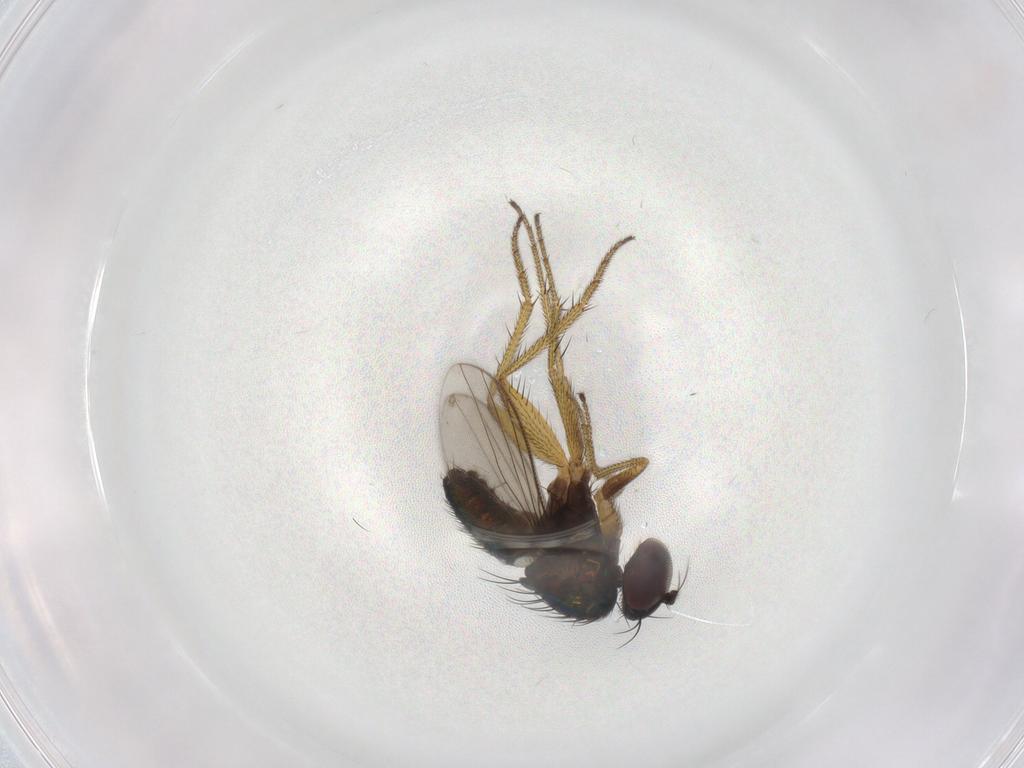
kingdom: Animalia
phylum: Arthropoda
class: Insecta
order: Diptera
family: Dolichopodidae
